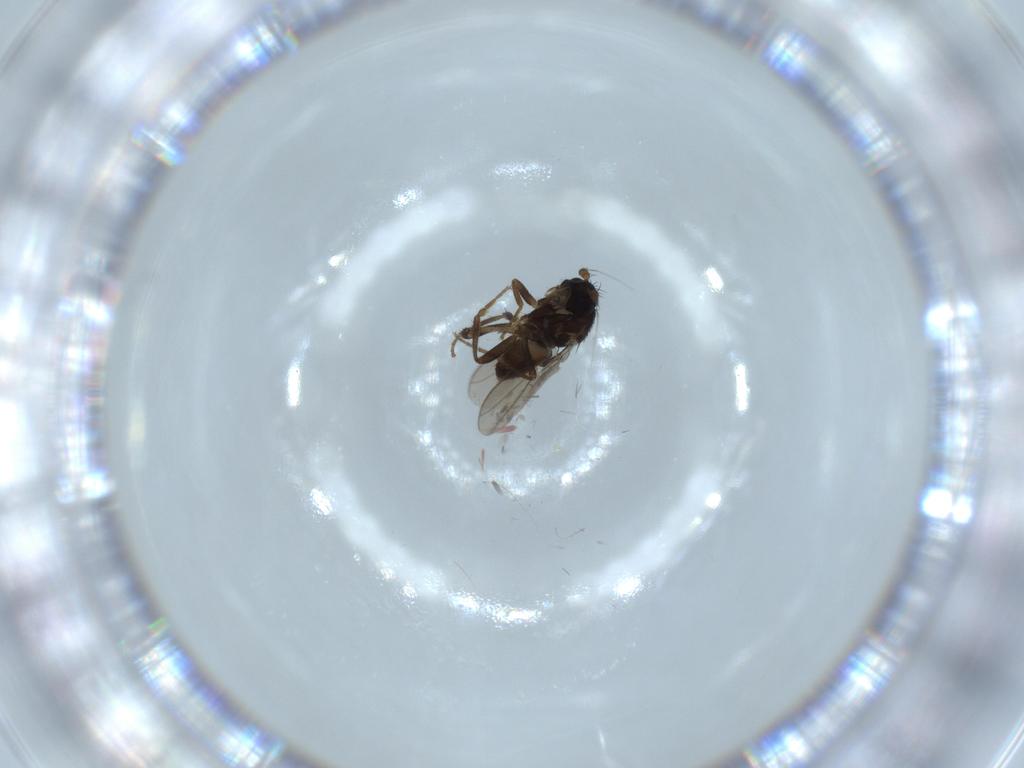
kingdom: Animalia
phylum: Arthropoda
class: Insecta
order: Diptera
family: Sphaeroceridae
